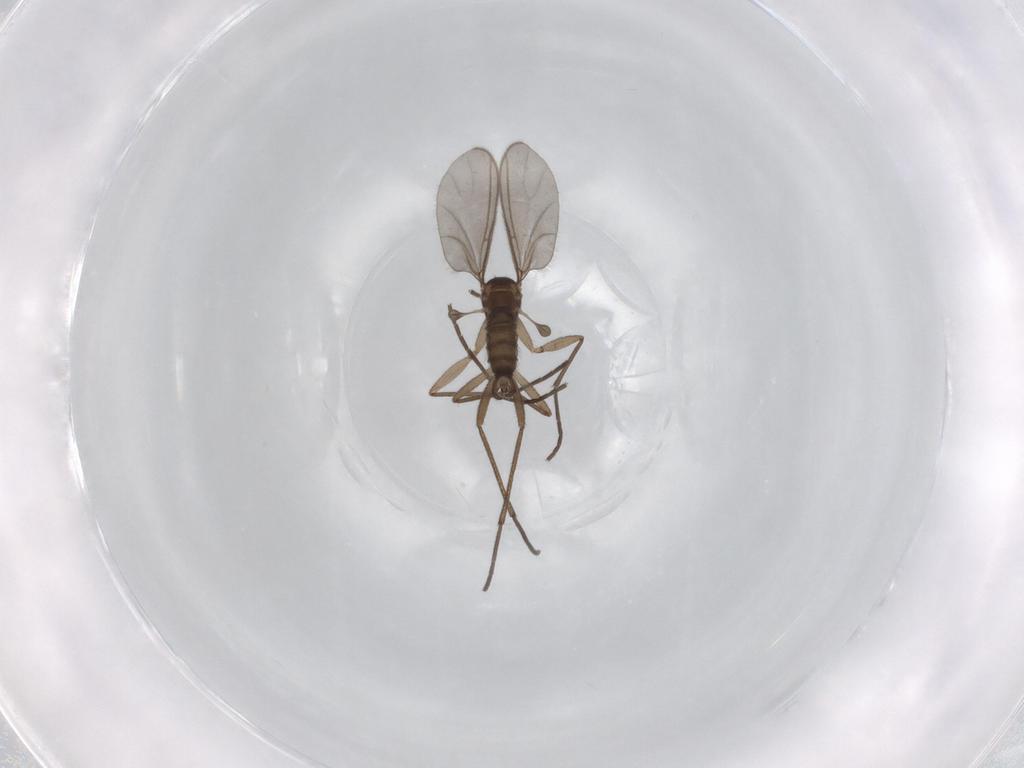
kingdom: Animalia
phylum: Arthropoda
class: Insecta
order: Diptera
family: Sciaridae
